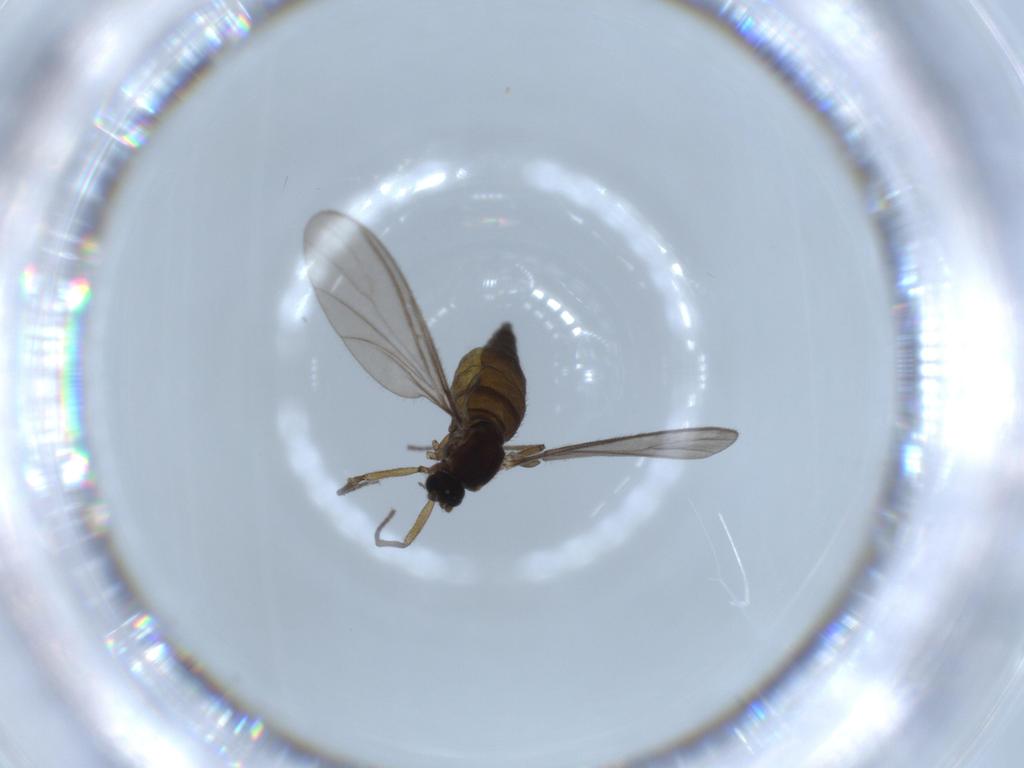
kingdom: Animalia
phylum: Arthropoda
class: Insecta
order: Diptera
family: Sciaridae
